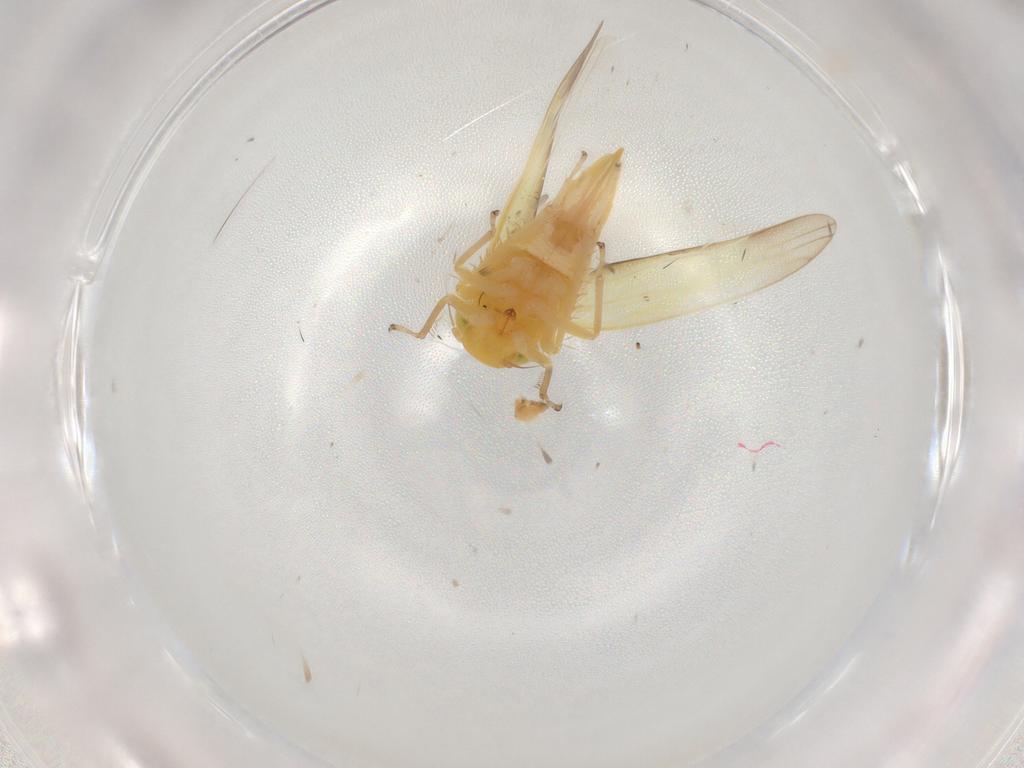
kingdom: Animalia
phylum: Arthropoda
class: Insecta
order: Hemiptera
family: Cicadellidae
